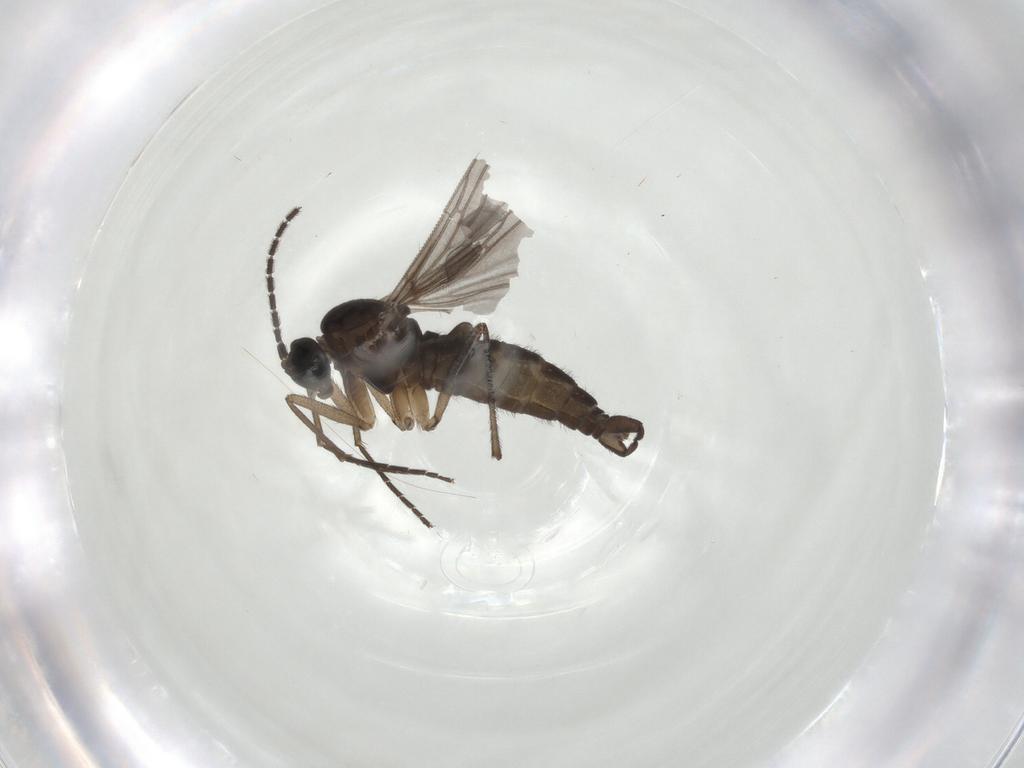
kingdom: Animalia
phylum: Arthropoda
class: Insecta
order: Diptera
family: Sciaridae
